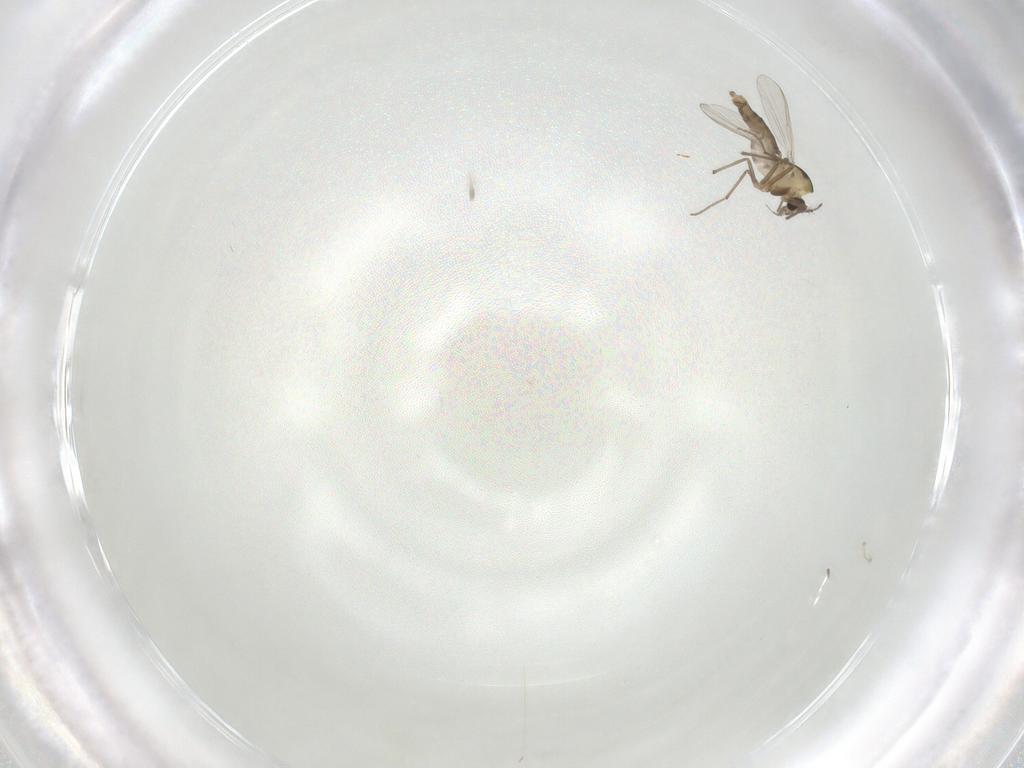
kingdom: Animalia
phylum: Arthropoda
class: Insecta
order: Diptera
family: Chironomidae
